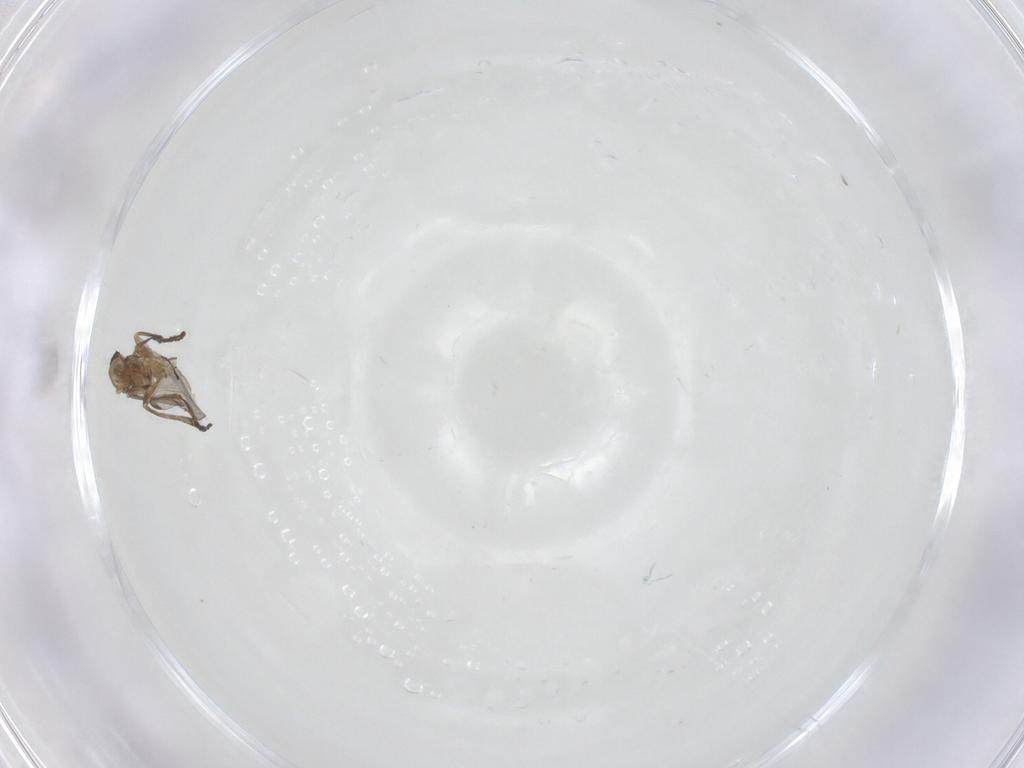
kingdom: Animalia
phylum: Arthropoda
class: Insecta
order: Diptera
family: Sciaridae
